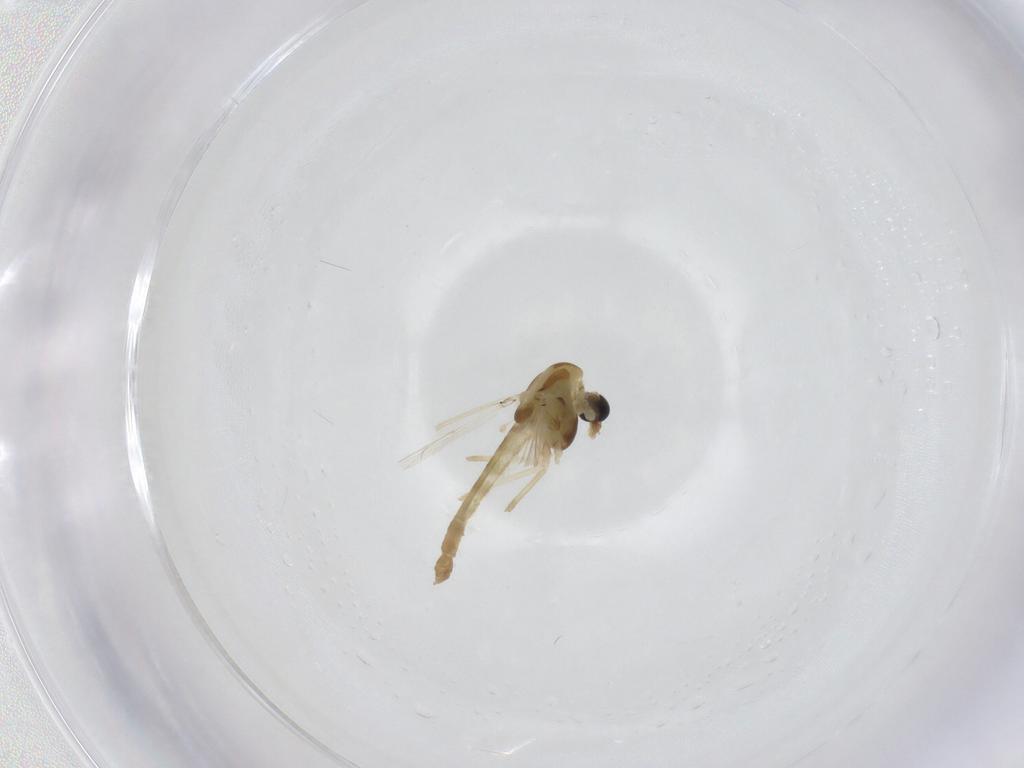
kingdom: Animalia
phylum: Arthropoda
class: Insecta
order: Diptera
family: Chironomidae
